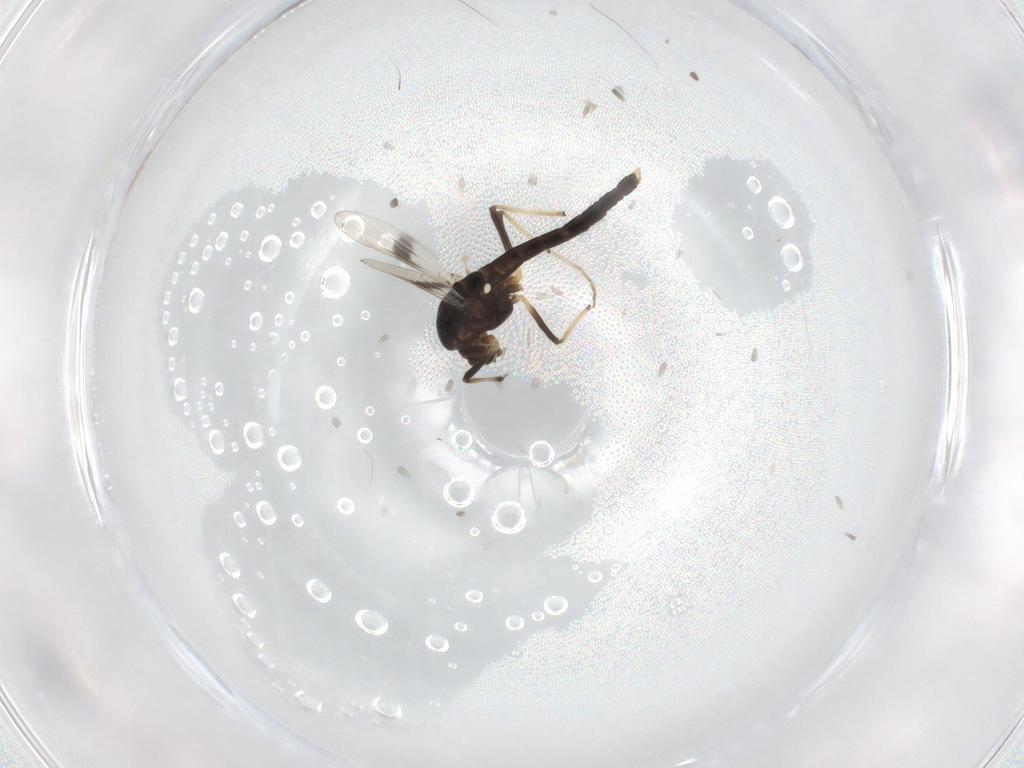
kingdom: Animalia
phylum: Arthropoda
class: Insecta
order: Diptera
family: Chironomidae
